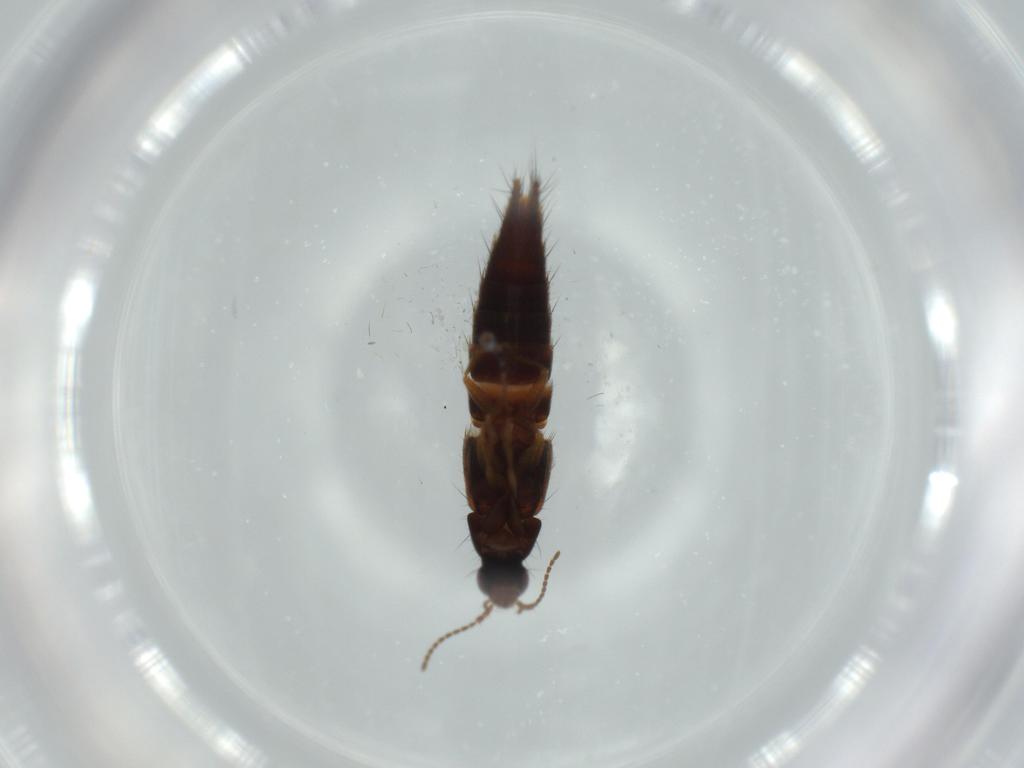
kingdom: Animalia
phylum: Arthropoda
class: Insecta
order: Coleoptera
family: Staphylinidae
